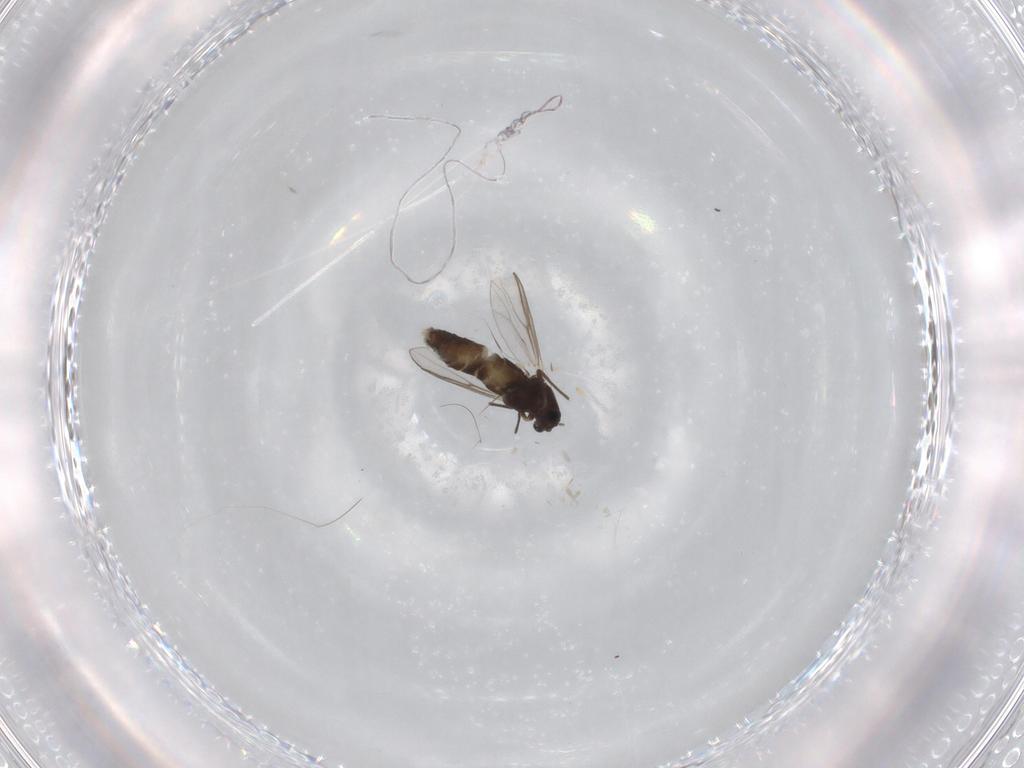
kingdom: Animalia
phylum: Arthropoda
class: Insecta
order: Diptera
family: Chironomidae
